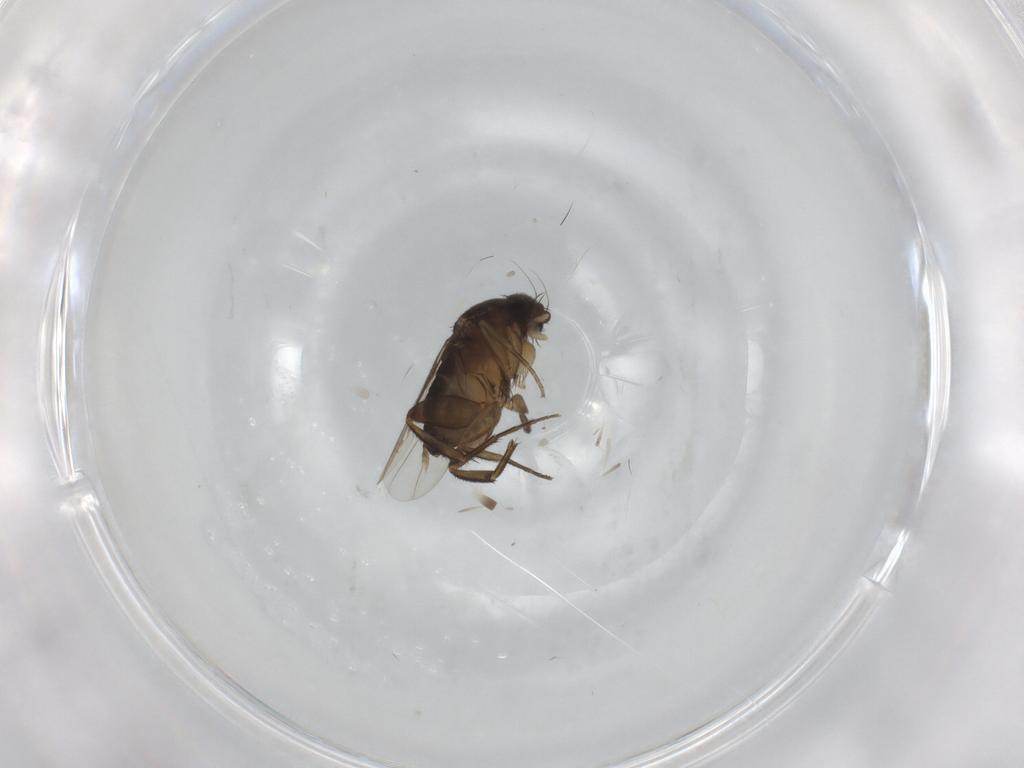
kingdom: Animalia
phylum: Arthropoda
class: Insecta
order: Diptera
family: Phoridae
